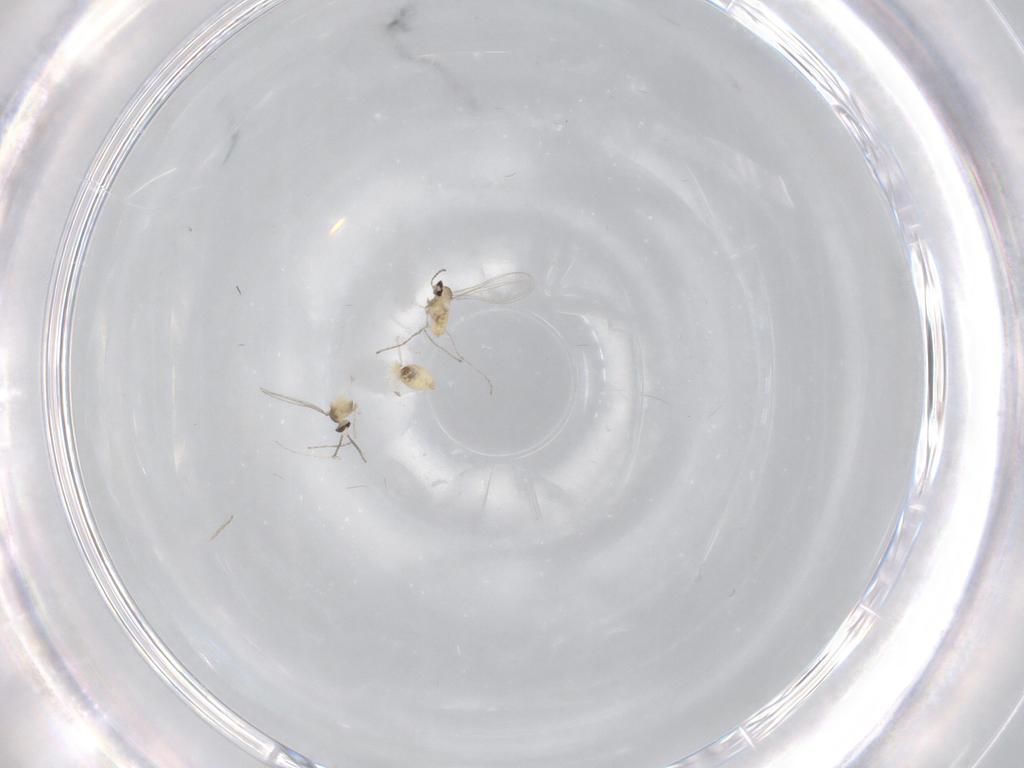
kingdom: Animalia
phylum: Arthropoda
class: Insecta
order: Diptera
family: Cecidomyiidae
